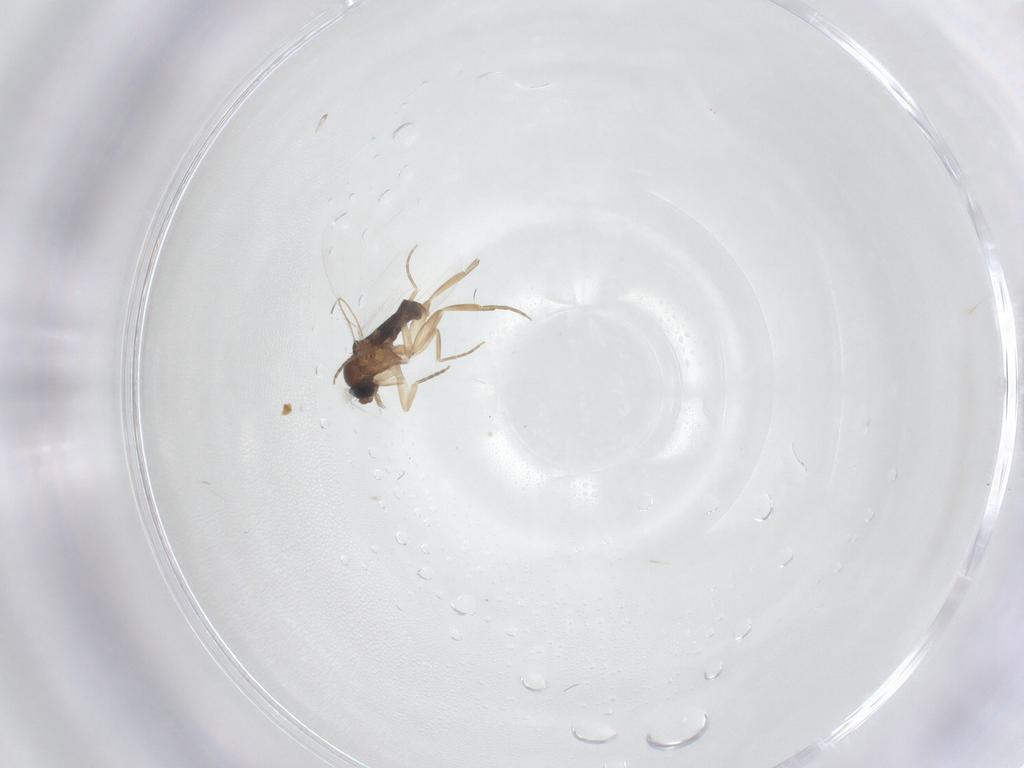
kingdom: Animalia
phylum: Arthropoda
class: Insecta
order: Diptera
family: Phoridae
